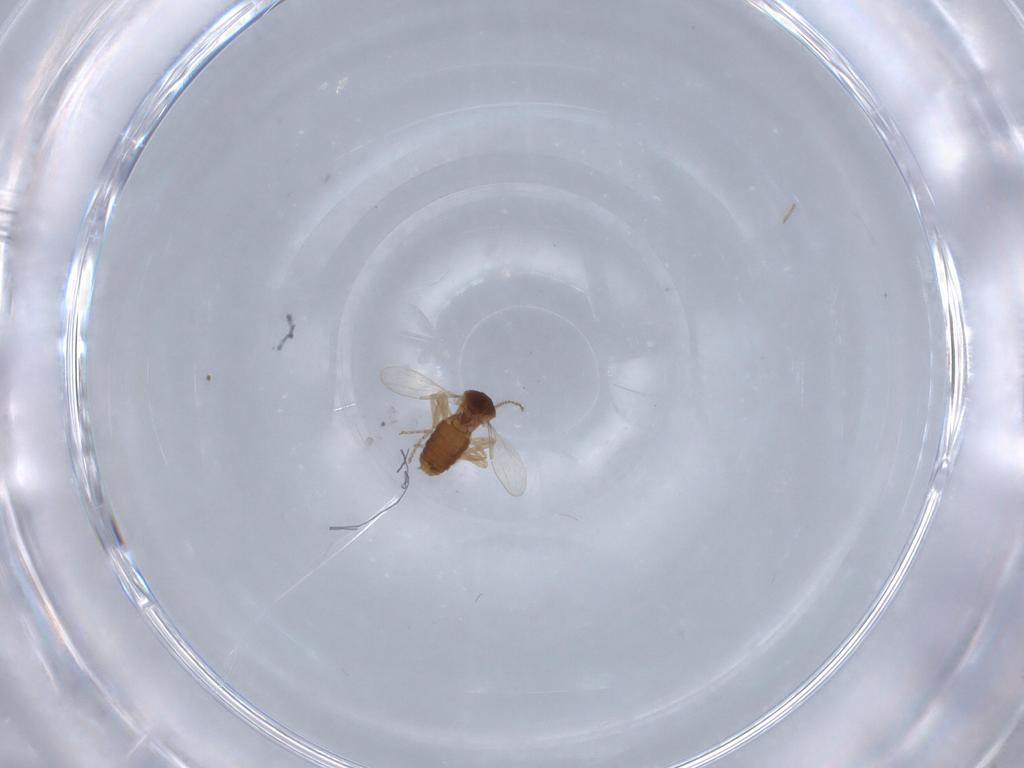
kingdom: Animalia
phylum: Arthropoda
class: Insecta
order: Diptera
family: Ceratopogonidae
